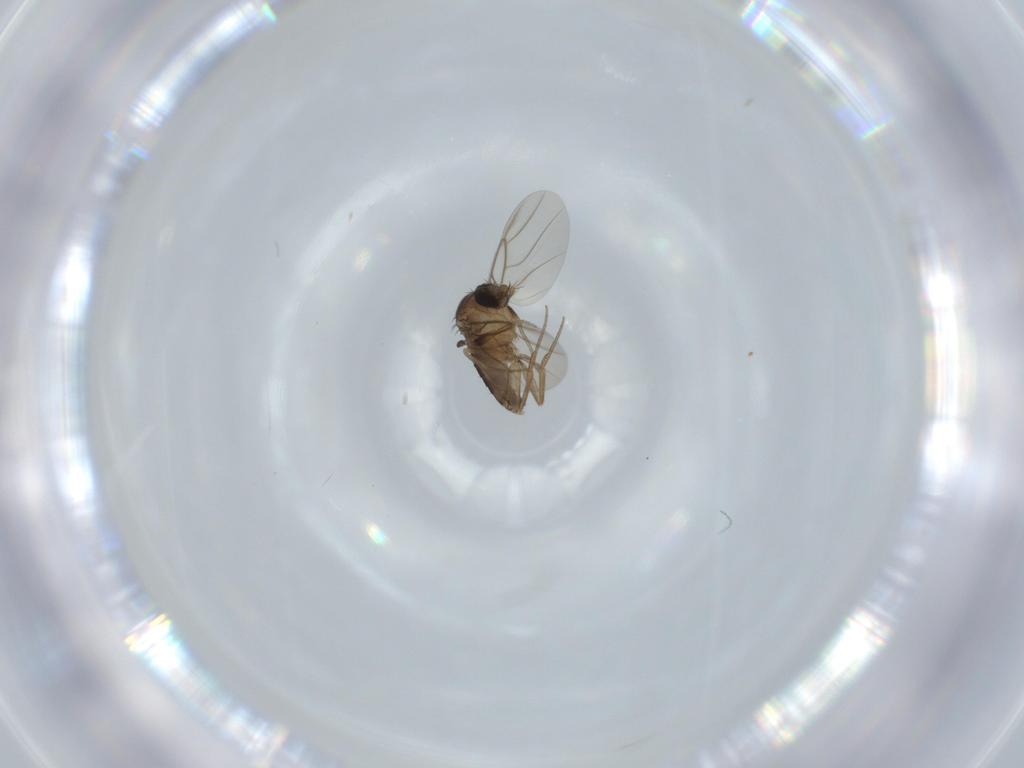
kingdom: Animalia
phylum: Arthropoda
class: Insecta
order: Diptera
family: Phoridae
